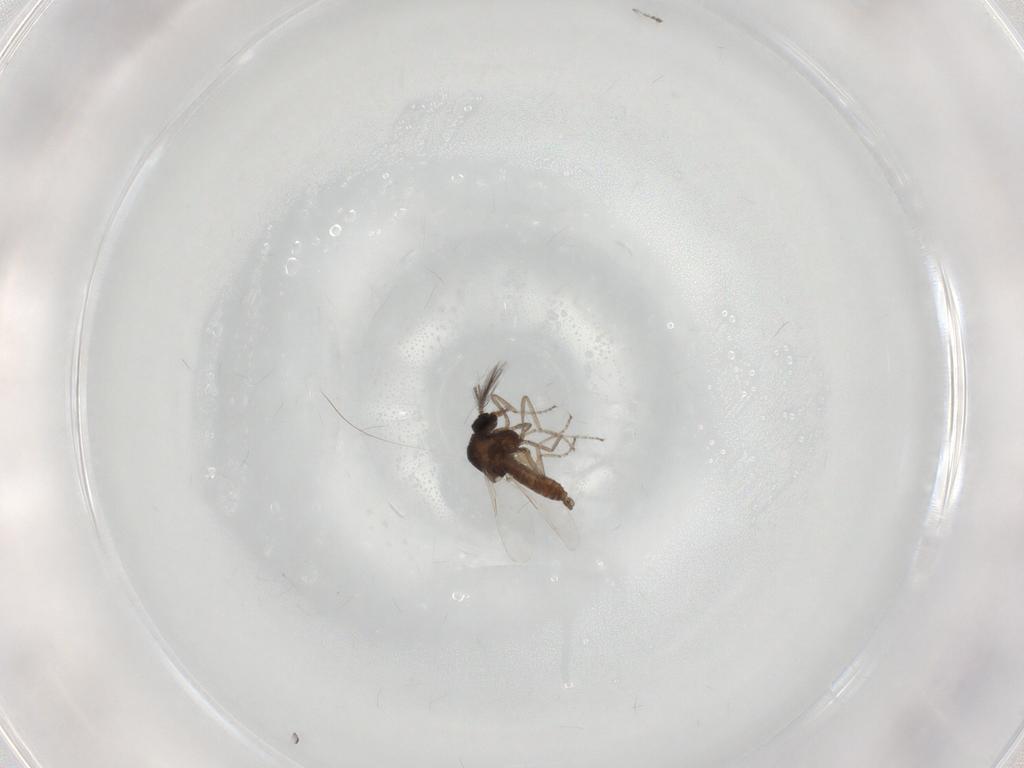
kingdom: Animalia
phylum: Arthropoda
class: Insecta
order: Diptera
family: Ceratopogonidae
